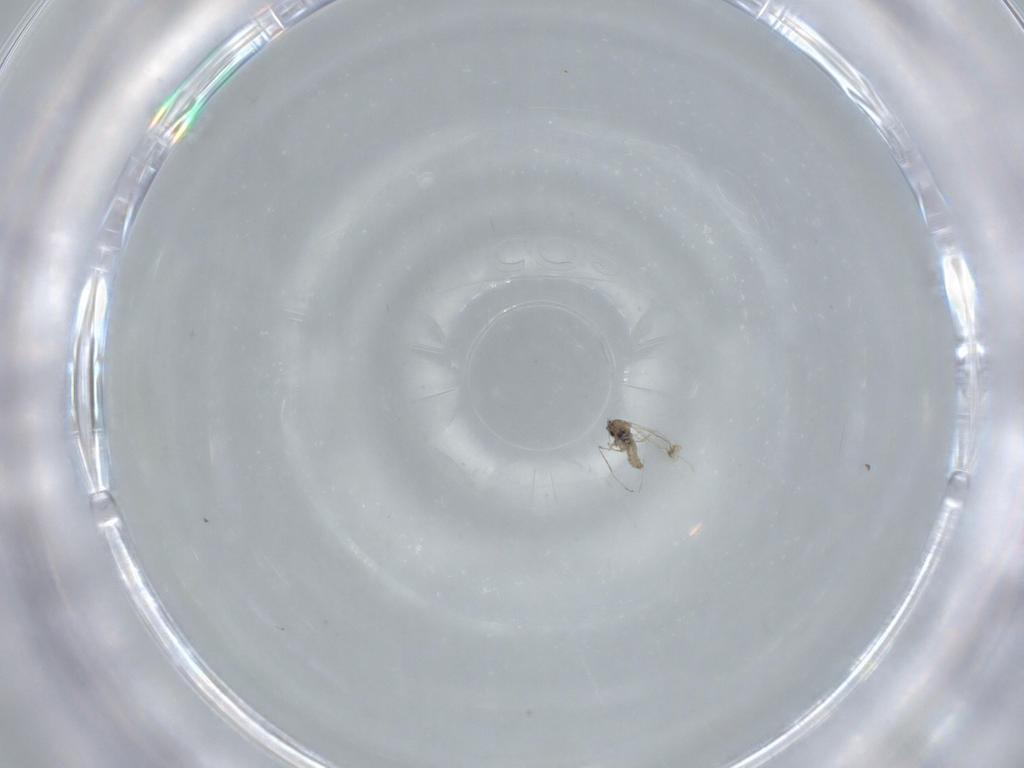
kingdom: Animalia
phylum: Arthropoda
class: Insecta
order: Diptera
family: Cecidomyiidae
